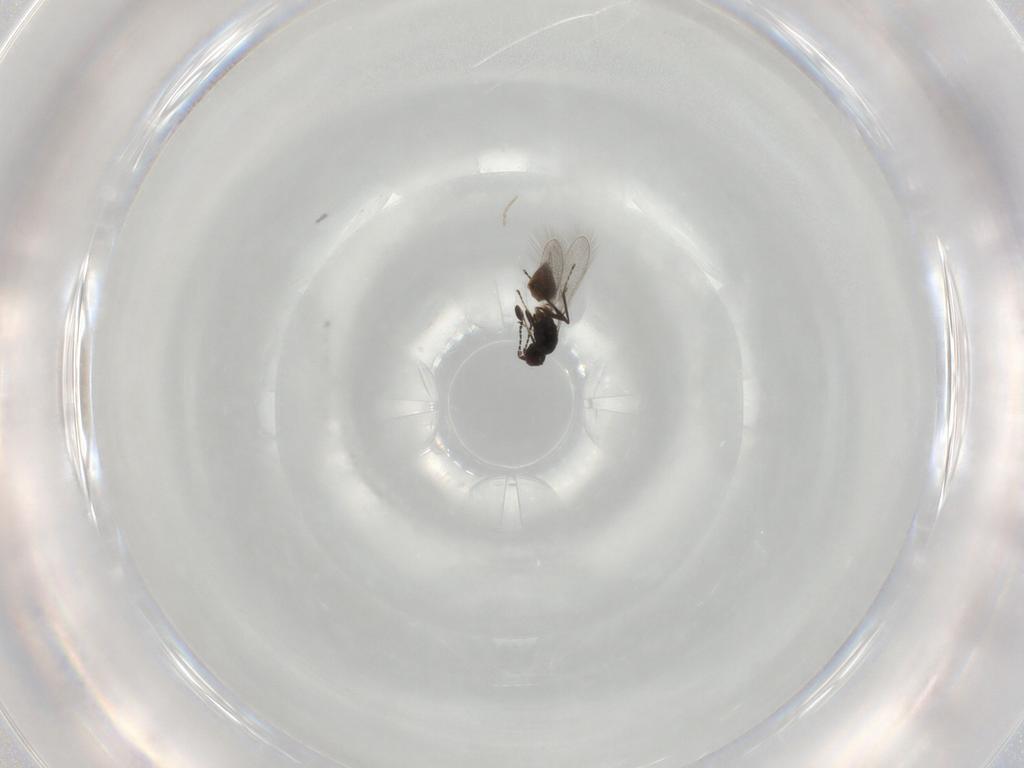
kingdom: Animalia
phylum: Arthropoda
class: Insecta
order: Hymenoptera
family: Mymaridae
